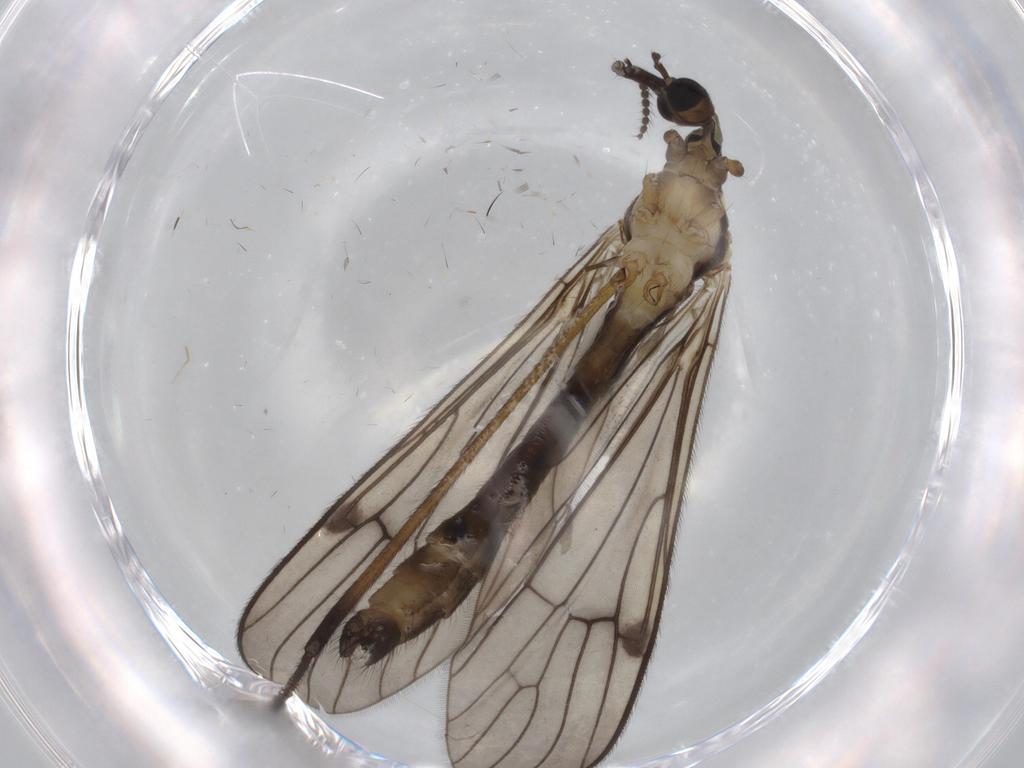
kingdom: Animalia
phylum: Arthropoda
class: Insecta
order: Diptera
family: Limoniidae
